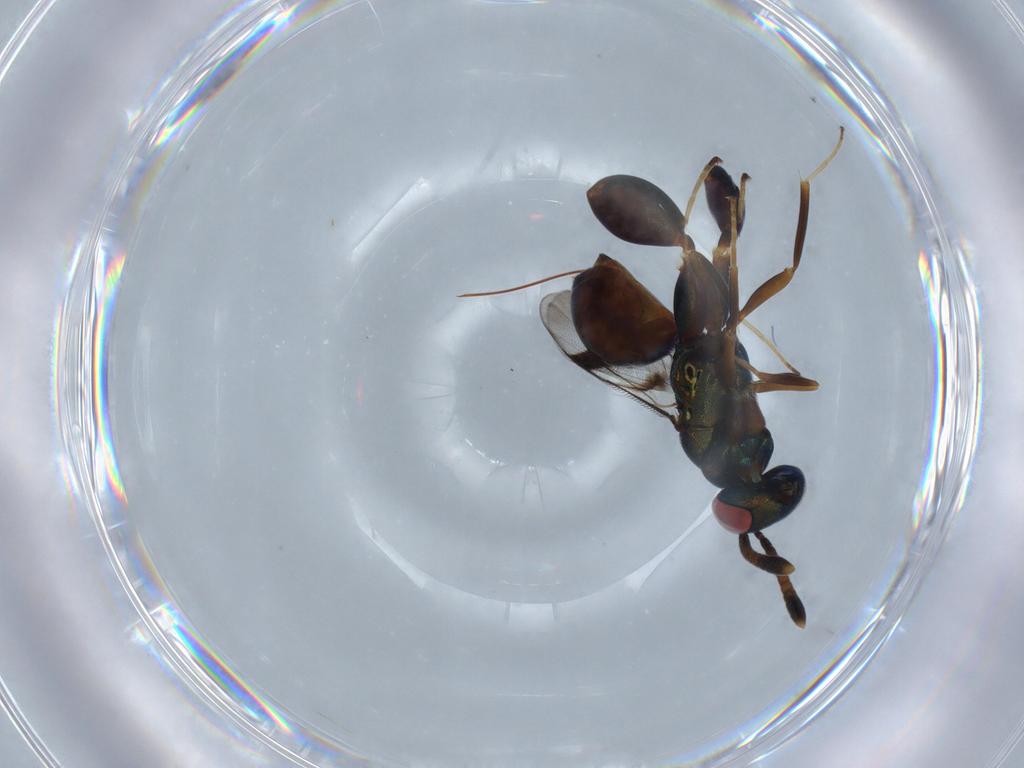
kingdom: Animalia
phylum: Arthropoda
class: Insecta
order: Hymenoptera
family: Torymidae
